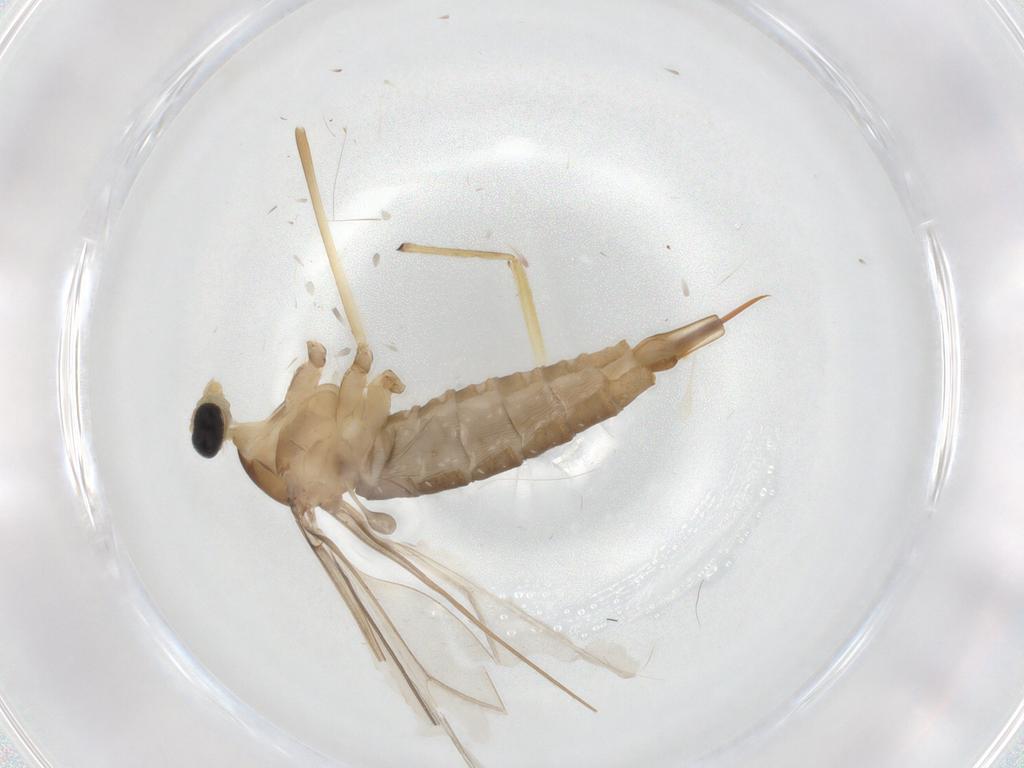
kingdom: Animalia
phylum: Arthropoda
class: Insecta
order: Diptera
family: Cecidomyiidae
